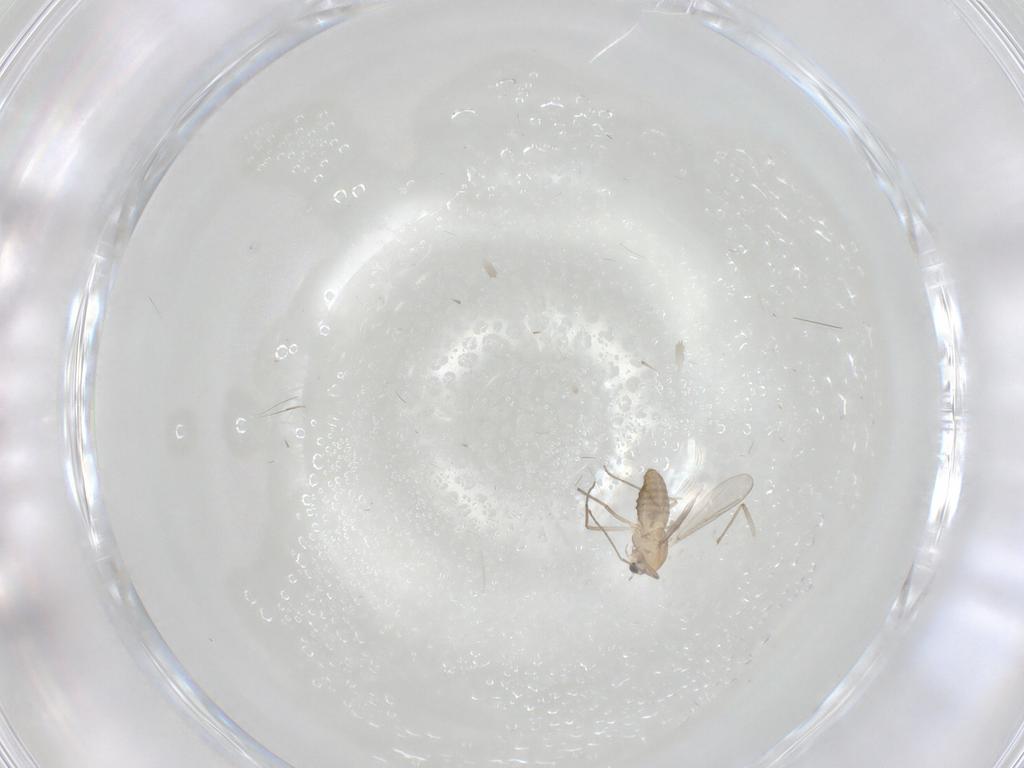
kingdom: Animalia
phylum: Arthropoda
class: Insecta
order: Diptera
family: Chironomidae
